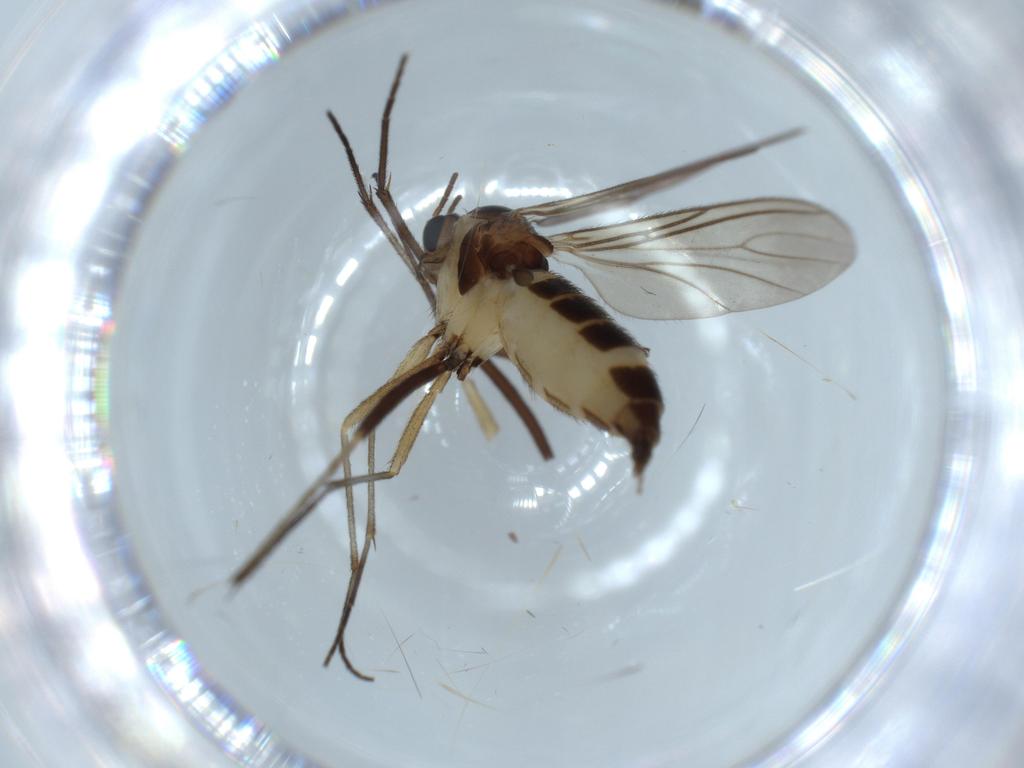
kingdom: Animalia
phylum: Arthropoda
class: Insecta
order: Diptera
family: Sciaridae
